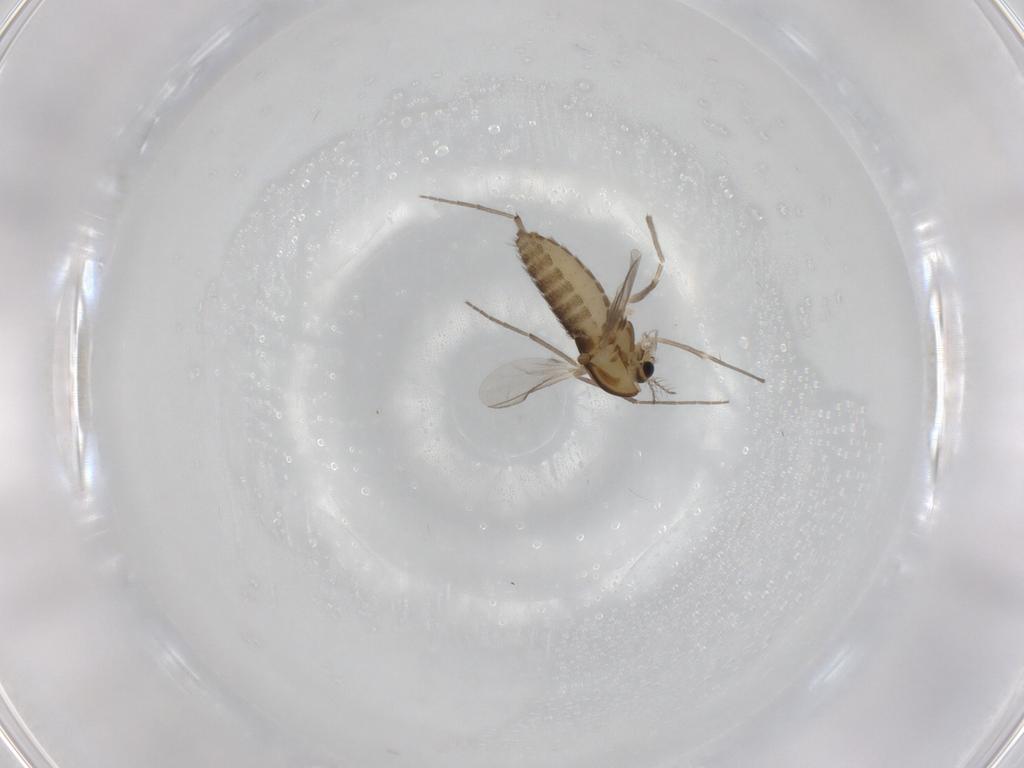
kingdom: Animalia
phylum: Arthropoda
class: Insecta
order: Diptera
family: Chironomidae
